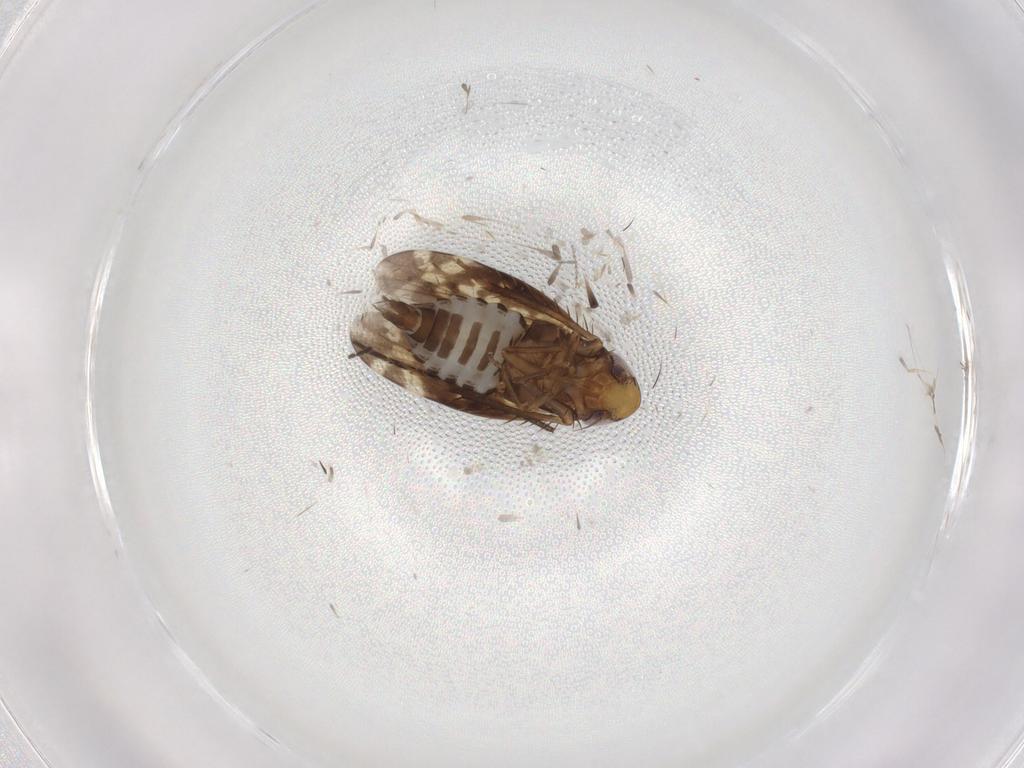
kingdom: Animalia
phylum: Arthropoda
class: Insecta
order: Hemiptera
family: Cicadellidae
